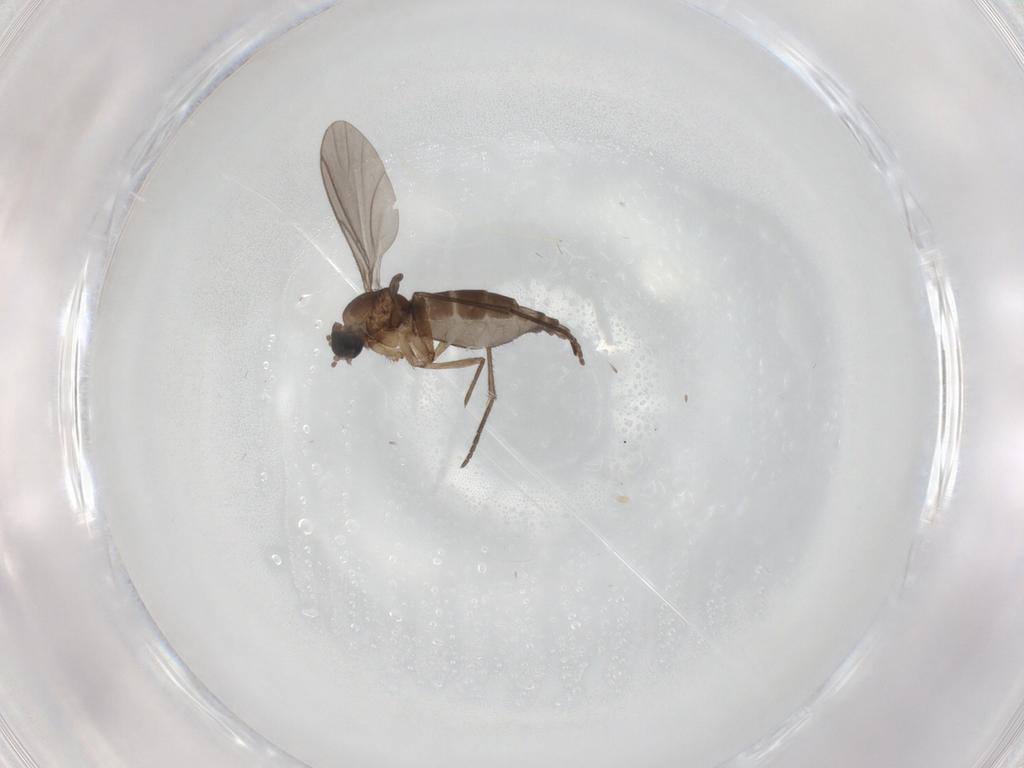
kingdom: Animalia
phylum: Arthropoda
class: Insecta
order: Diptera
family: Sciaridae
